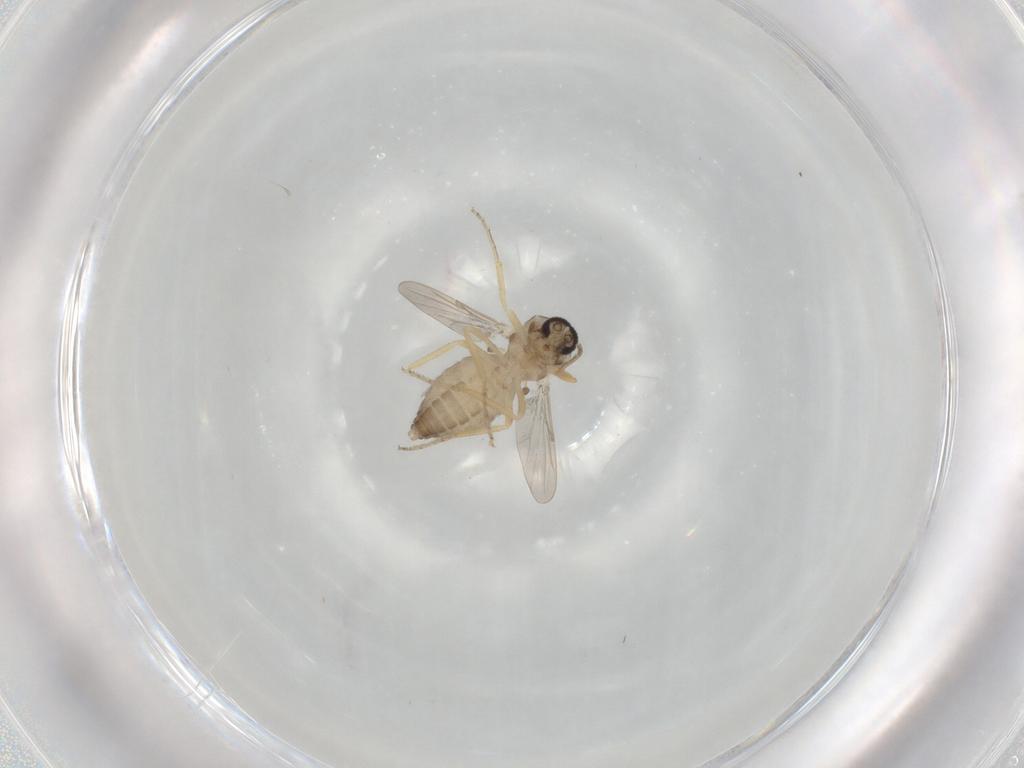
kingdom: Animalia
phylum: Arthropoda
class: Insecta
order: Diptera
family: Ceratopogonidae
